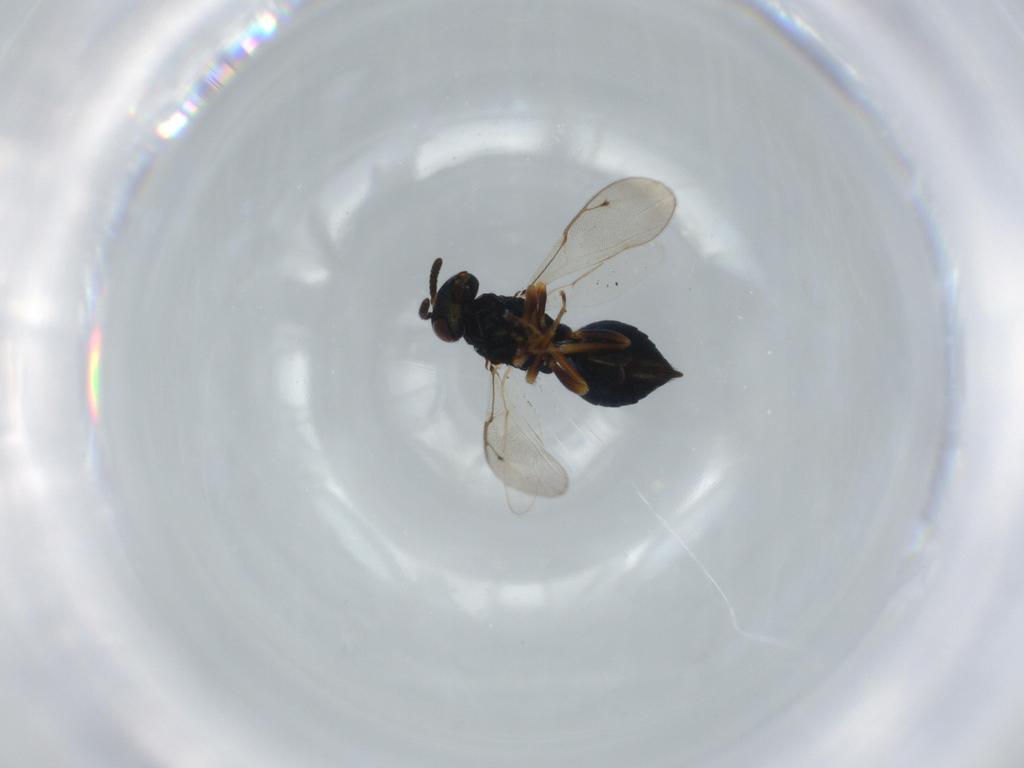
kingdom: Animalia
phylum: Arthropoda
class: Insecta
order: Hymenoptera
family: Pteromalidae
